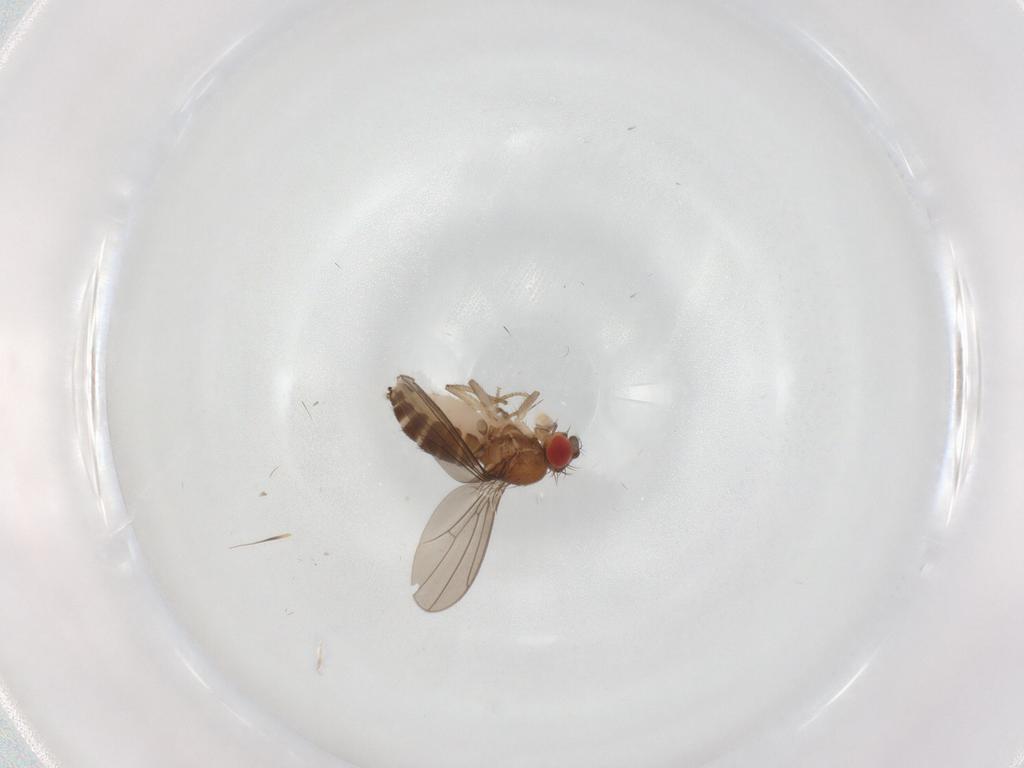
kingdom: Animalia
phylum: Arthropoda
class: Insecta
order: Diptera
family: Drosophilidae
